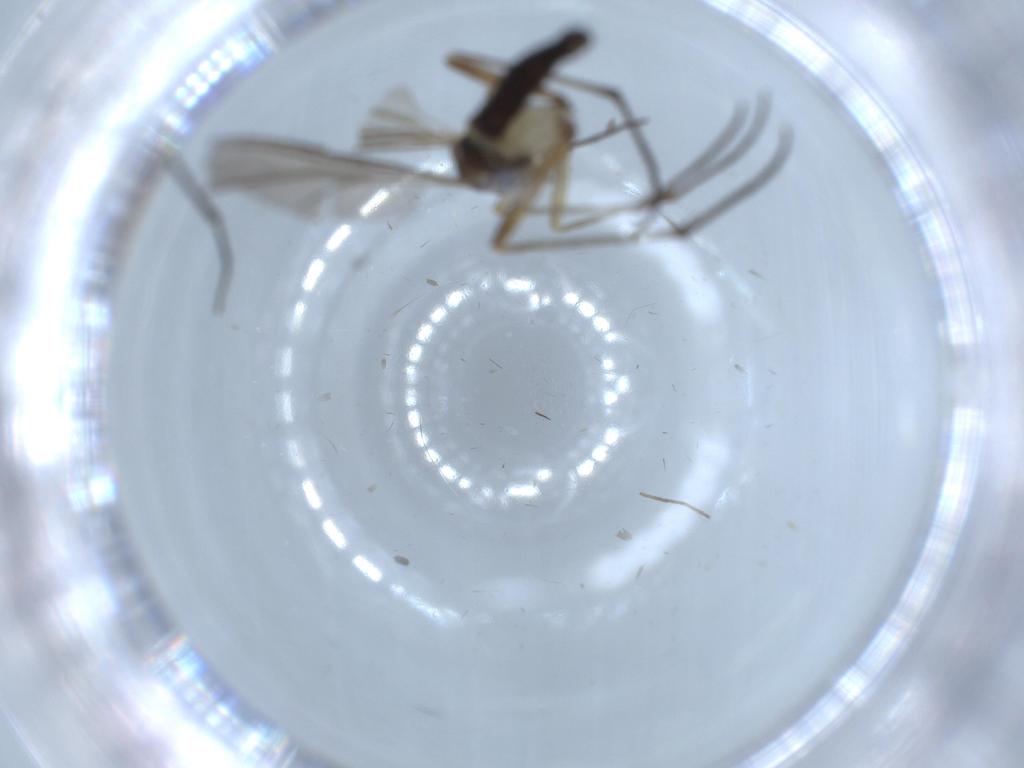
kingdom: Animalia
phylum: Arthropoda
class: Insecta
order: Diptera
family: Sciaridae
